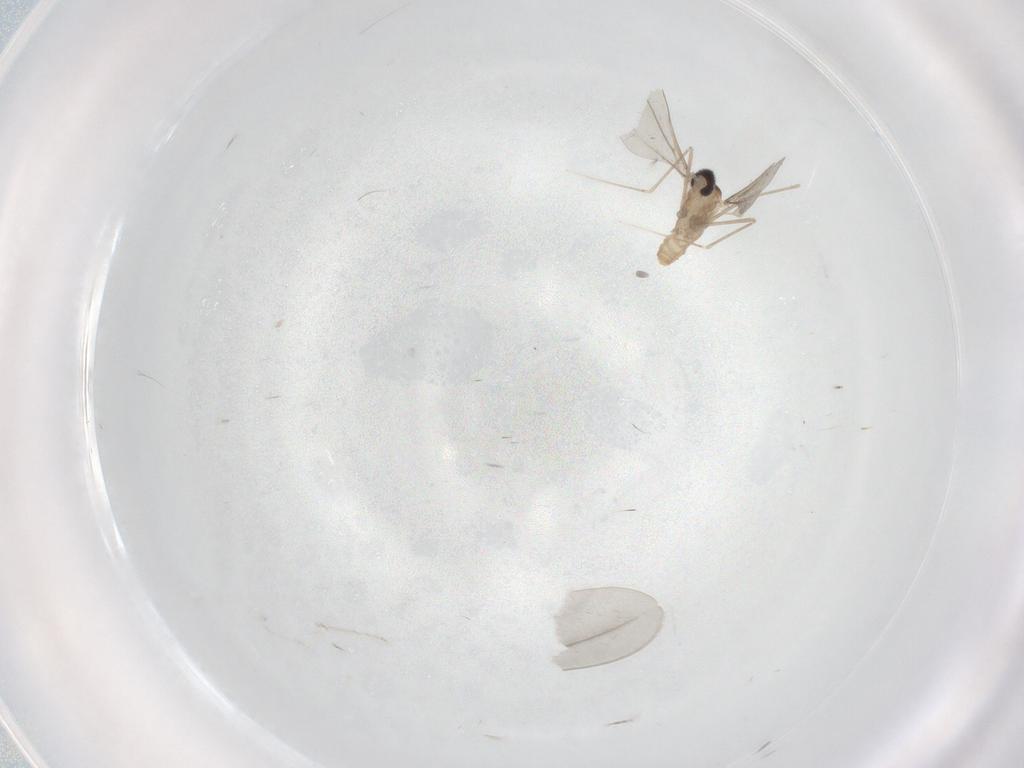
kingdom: Animalia
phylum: Arthropoda
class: Insecta
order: Diptera
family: Cecidomyiidae
